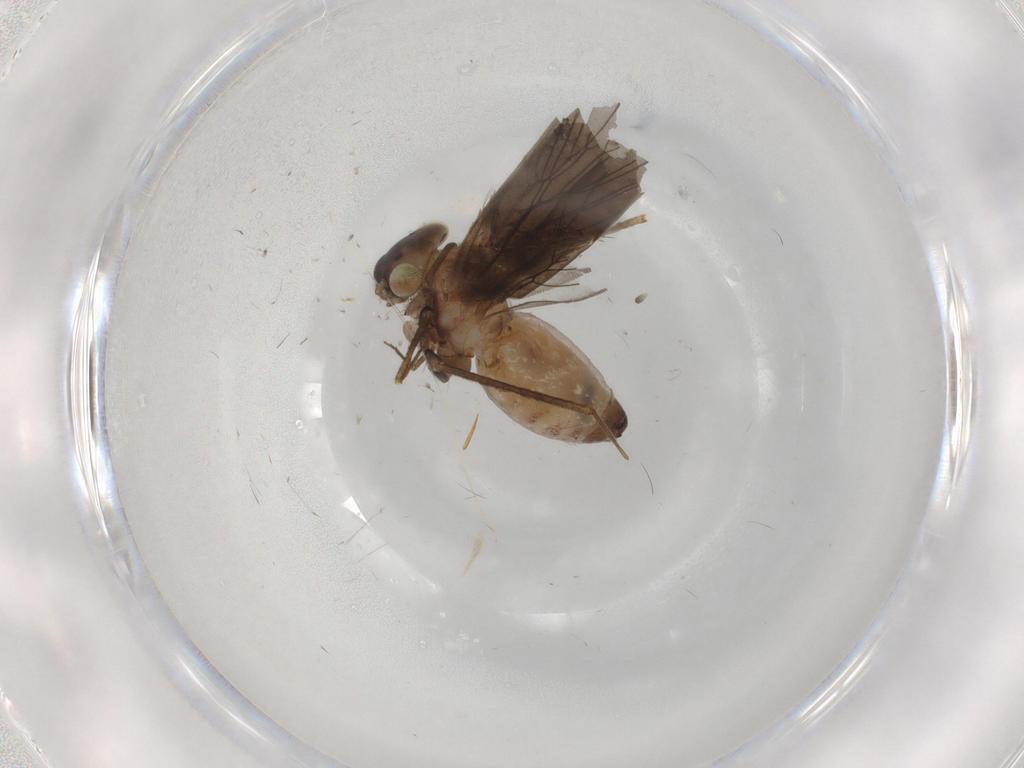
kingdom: Animalia
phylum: Arthropoda
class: Insecta
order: Psocodea
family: Lepidopsocidae
